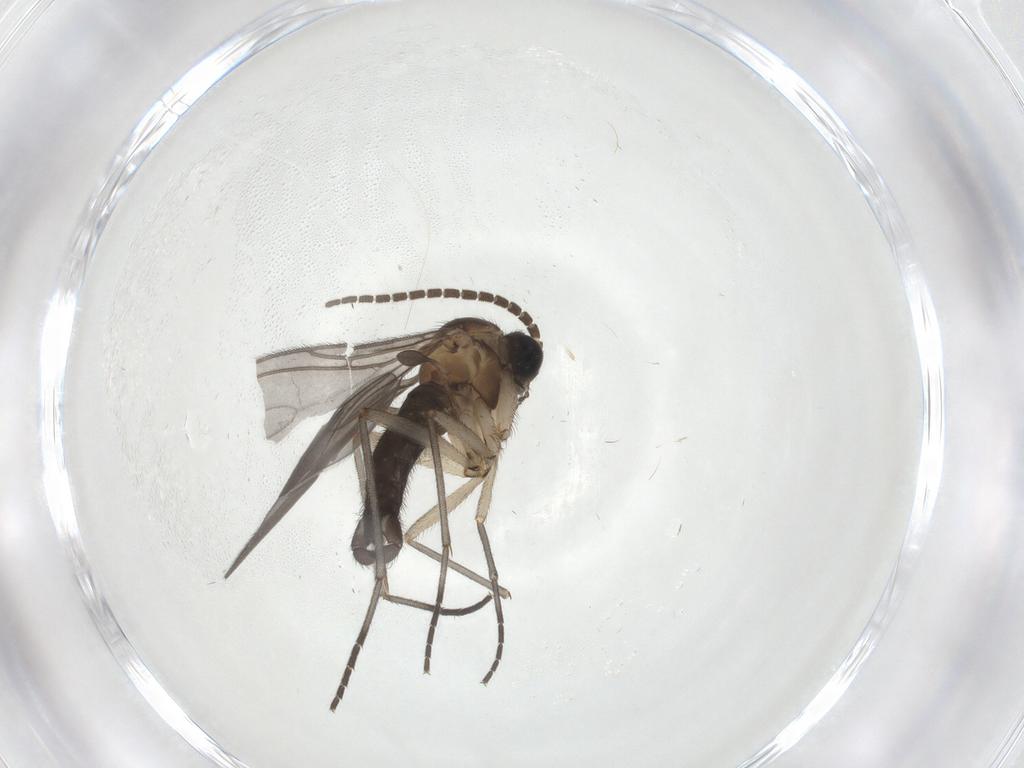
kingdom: Animalia
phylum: Arthropoda
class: Insecta
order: Diptera
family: Sciaridae
